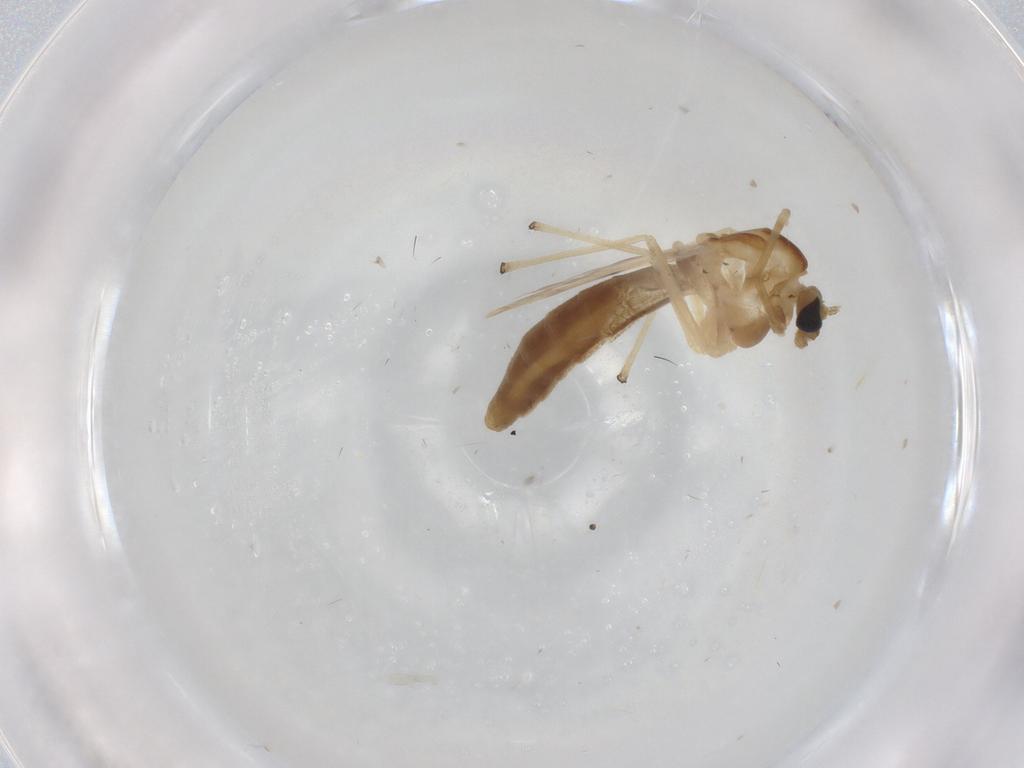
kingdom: Animalia
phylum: Arthropoda
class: Insecta
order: Diptera
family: Chironomidae
